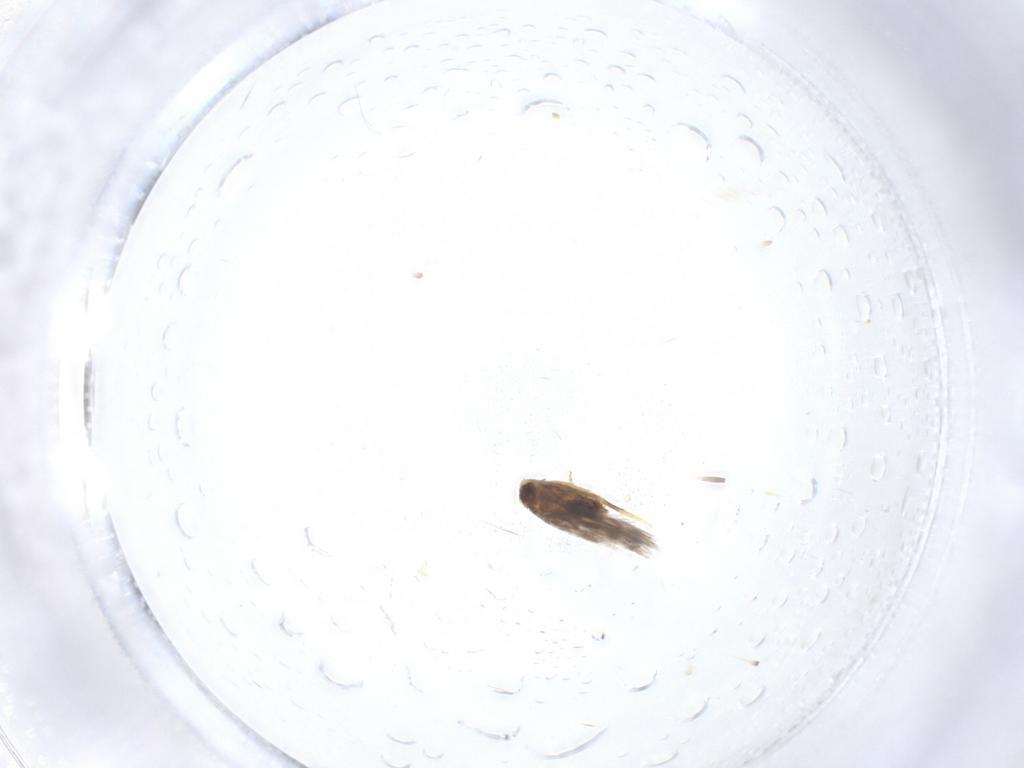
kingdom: Animalia
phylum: Arthropoda
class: Insecta
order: Lepidoptera
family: Nepticulidae
